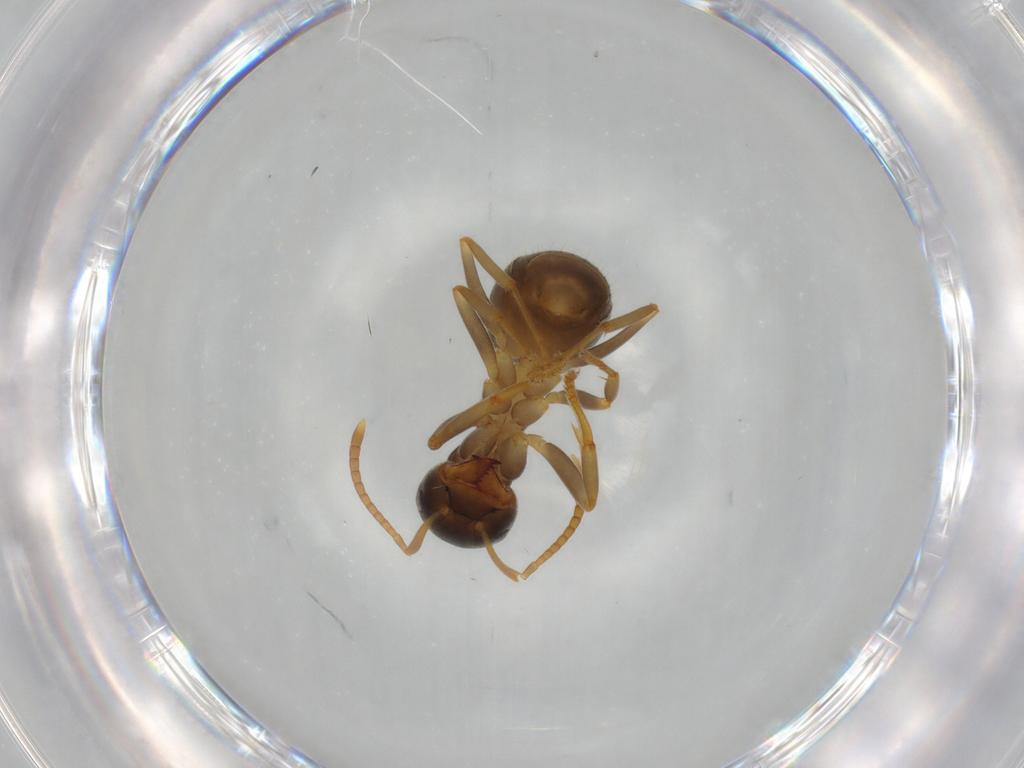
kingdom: Animalia
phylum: Arthropoda
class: Insecta
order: Hymenoptera
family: Formicidae
